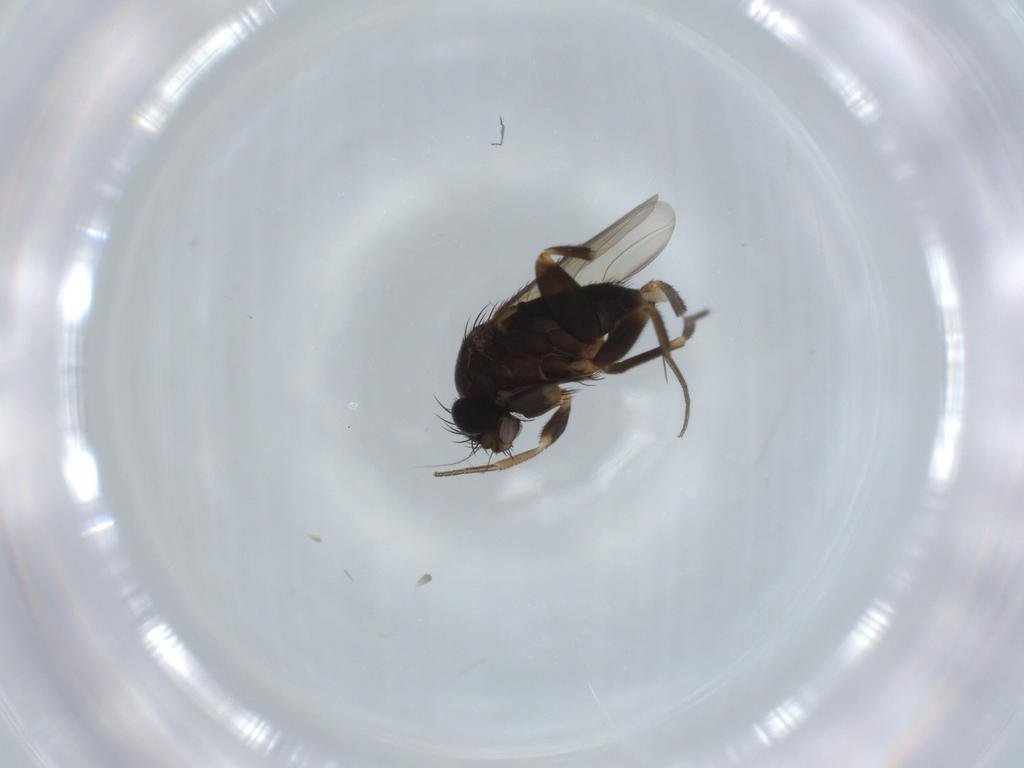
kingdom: Animalia
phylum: Arthropoda
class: Insecta
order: Diptera
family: Phoridae
